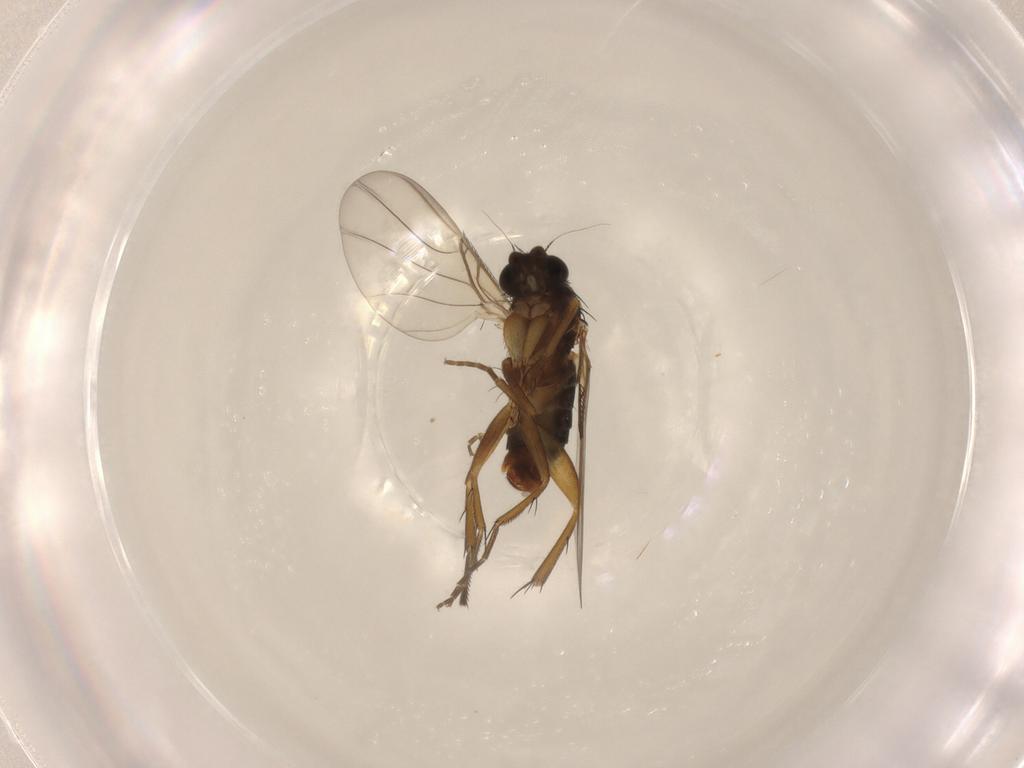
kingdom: Animalia
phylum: Arthropoda
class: Insecta
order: Diptera
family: Phoridae
